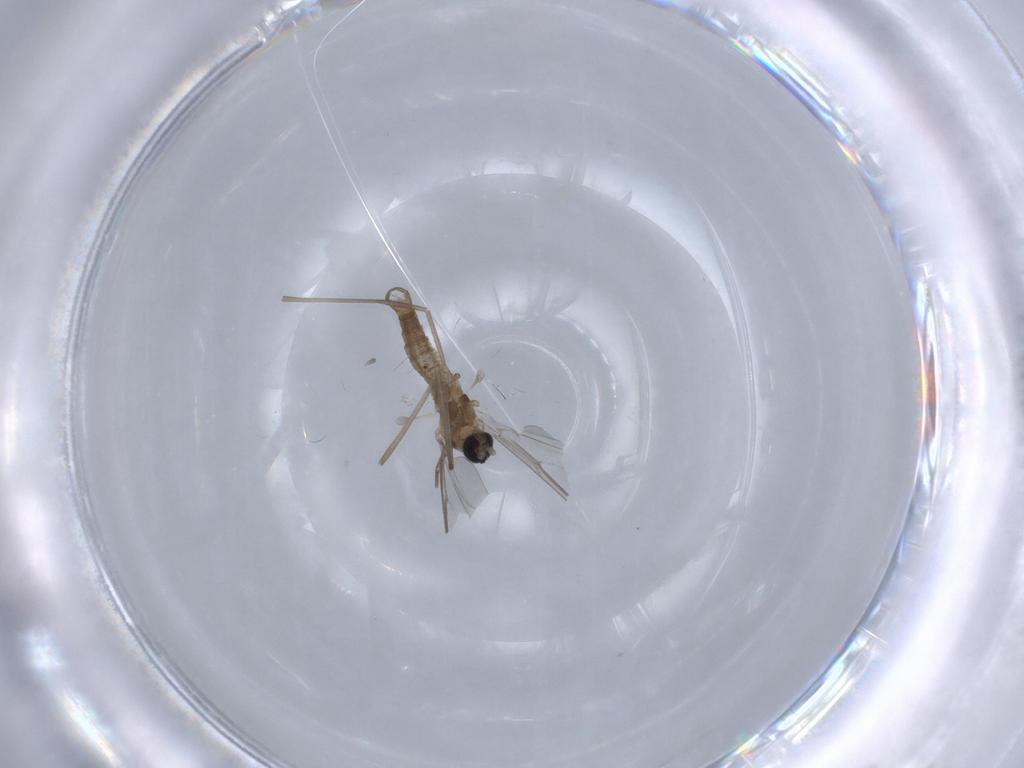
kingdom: Animalia
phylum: Arthropoda
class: Insecta
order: Diptera
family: Cecidomyiidae
